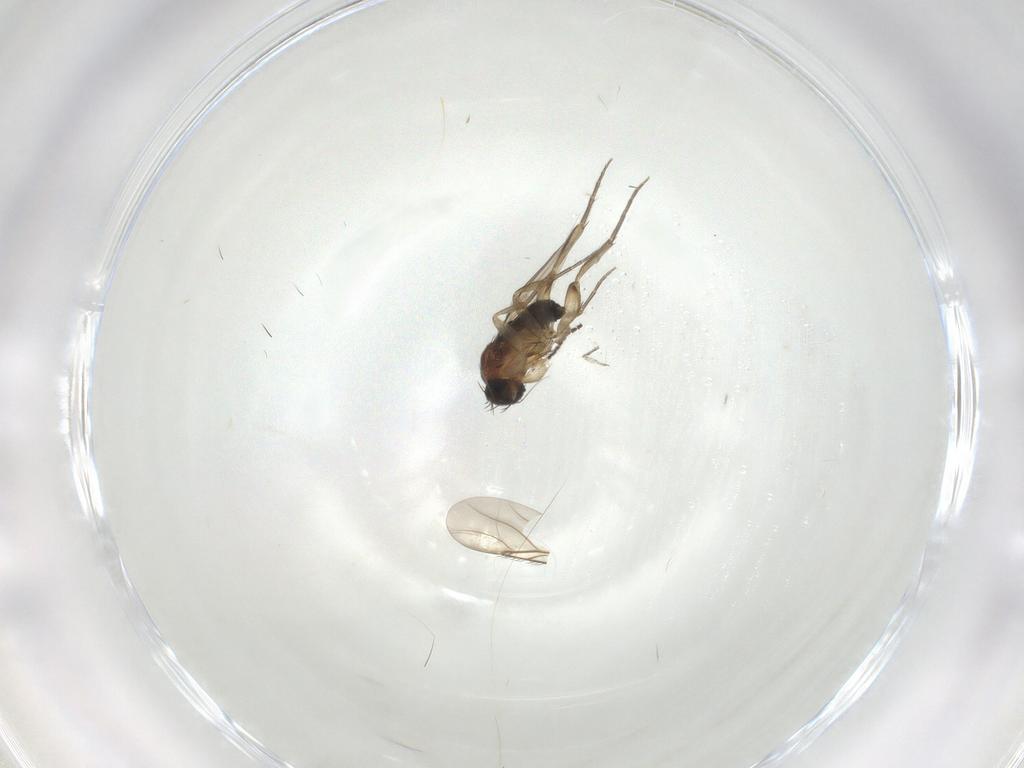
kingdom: Animalia
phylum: Arthropoda
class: Insecta
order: Diptera
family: Phoridae
